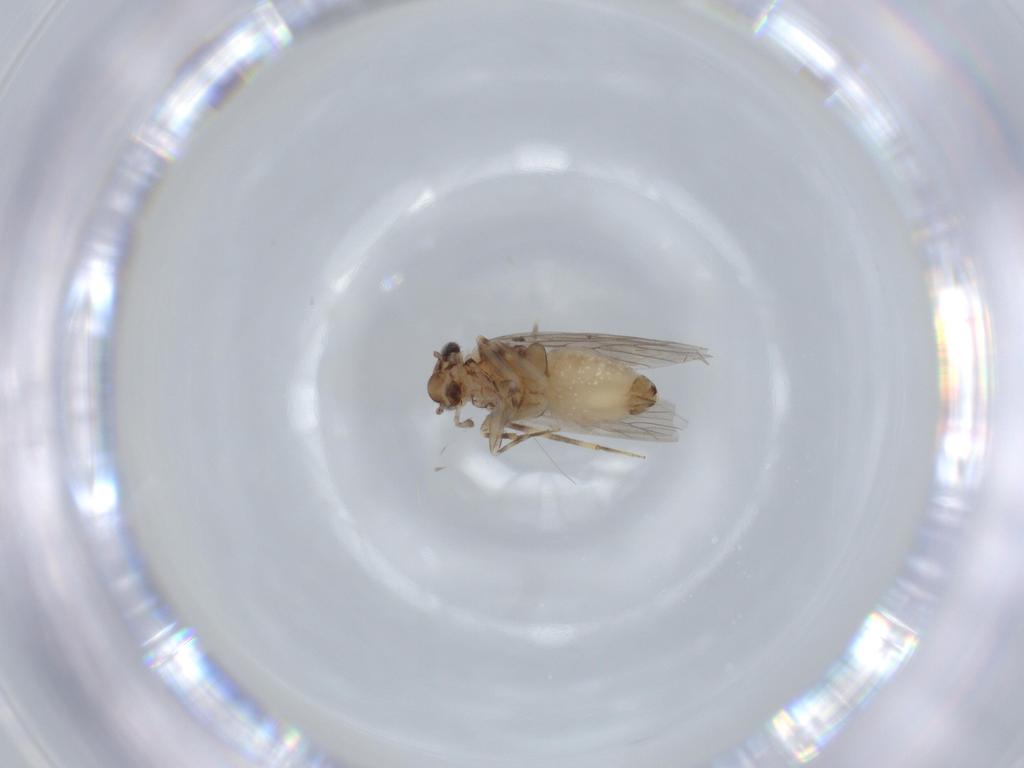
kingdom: Animalia
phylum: Arthropoda
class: Insecta
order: Psocodea
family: Lepidopsocidae
